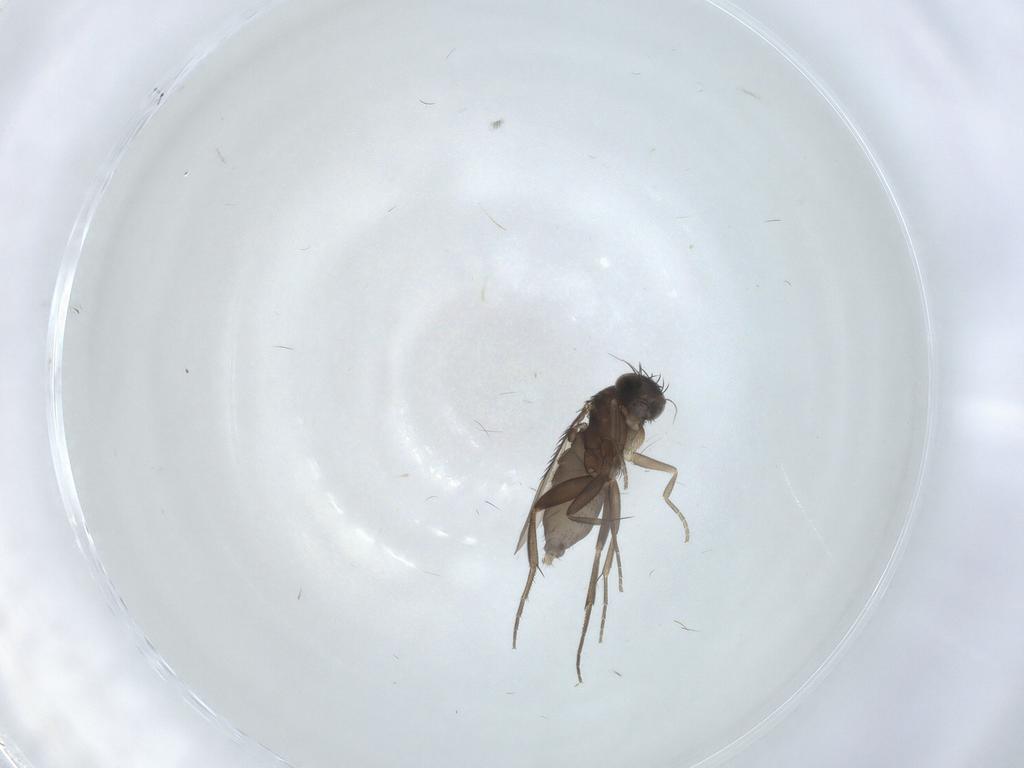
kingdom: Animalia
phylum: Arthropoda
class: Insecta
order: Diptera
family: Phoridae
